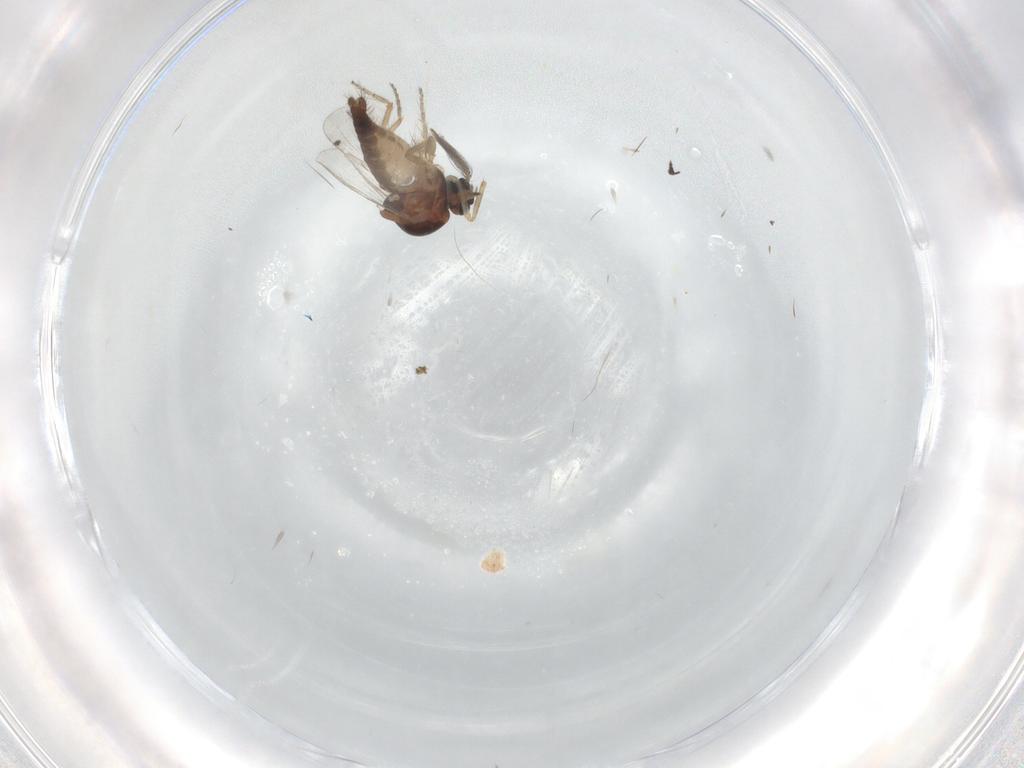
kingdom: Animalia
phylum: Arthropoda
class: Insecta
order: Diptera
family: Ceratopogonidae
